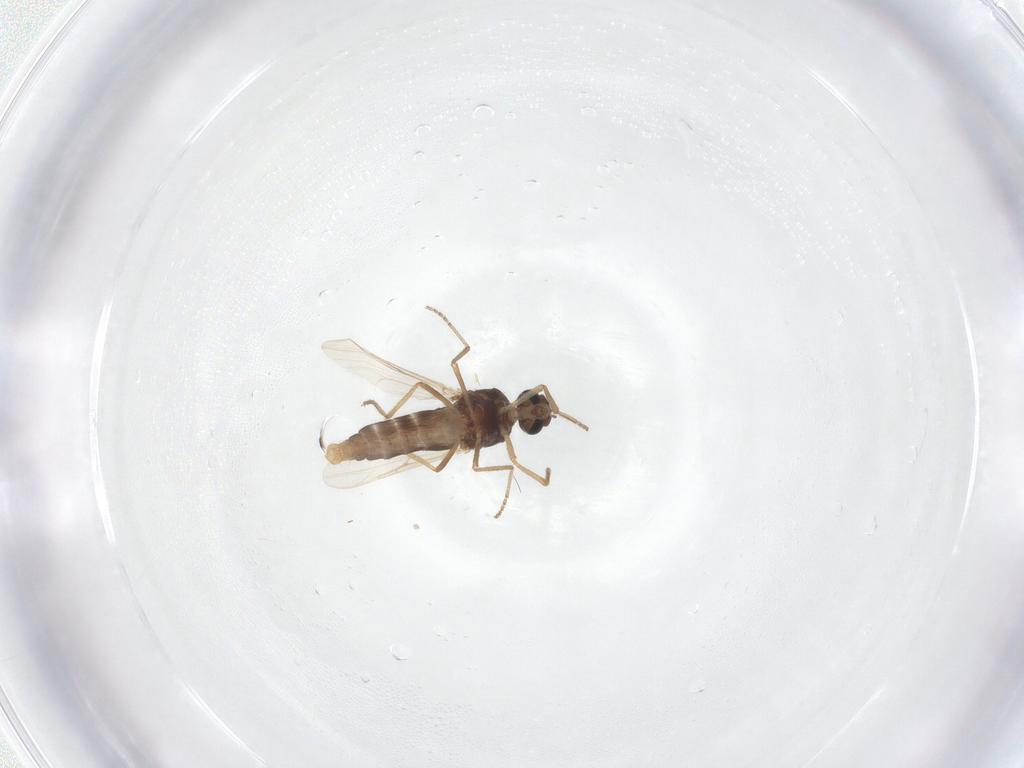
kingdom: Animalia
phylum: Arthropoda
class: Insecta
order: Diptera
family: Ceratopogonidae
